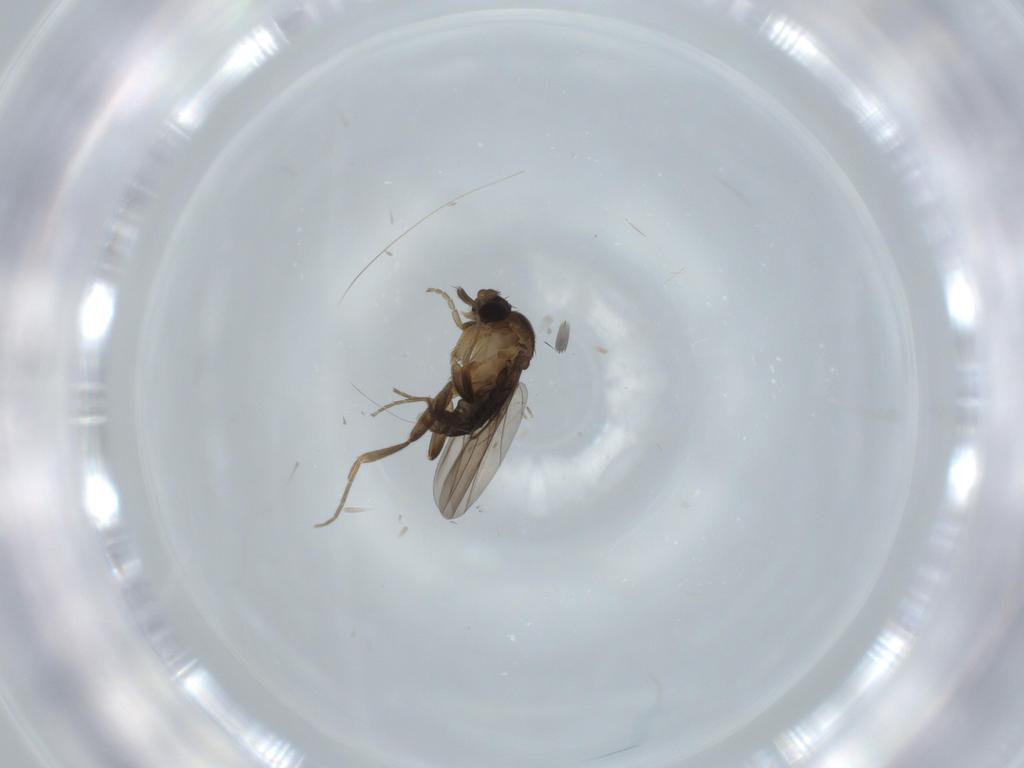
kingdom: Animalia
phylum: Arthropoda
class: Insecta
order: Diptera
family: Phoridae
